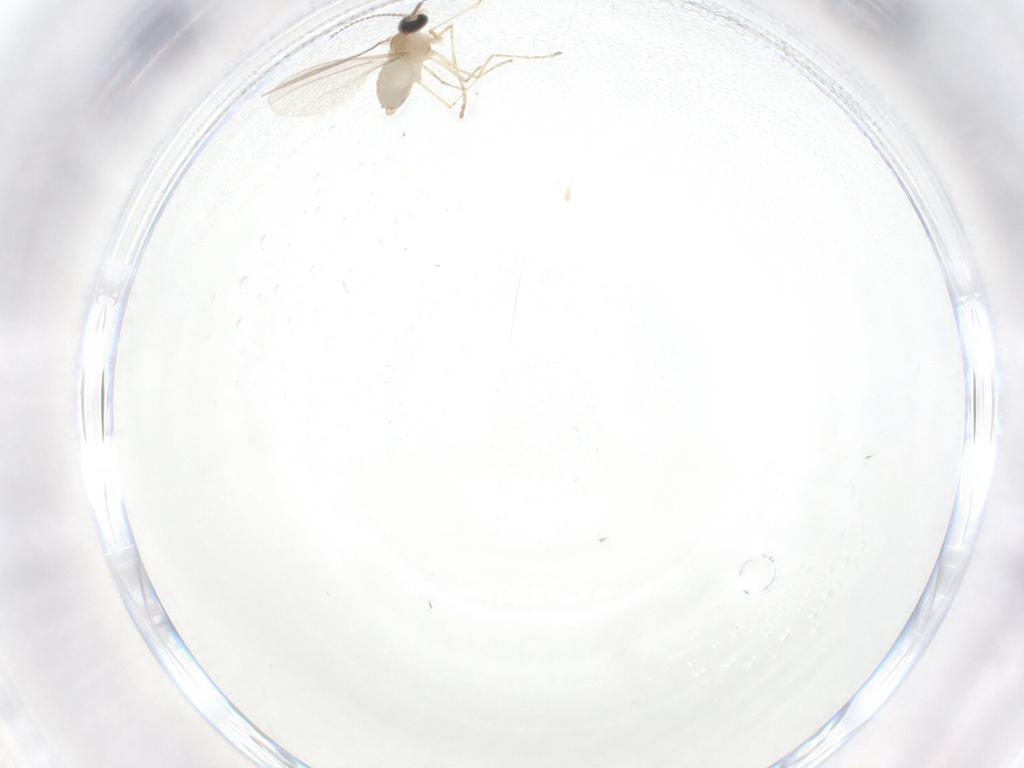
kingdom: Animalia
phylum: Arthropoda
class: Insecta
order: Diptera
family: Cecidomyiidae
